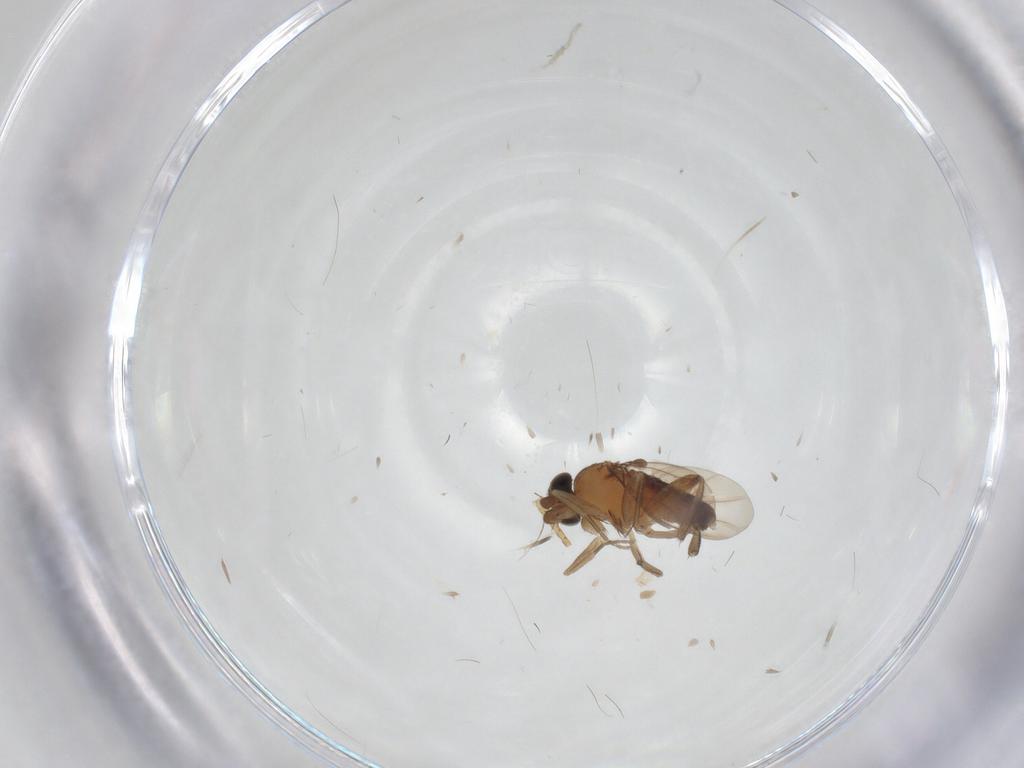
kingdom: Animalia
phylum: Arthropoda
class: Insecta
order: Diptera
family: Phoridae
